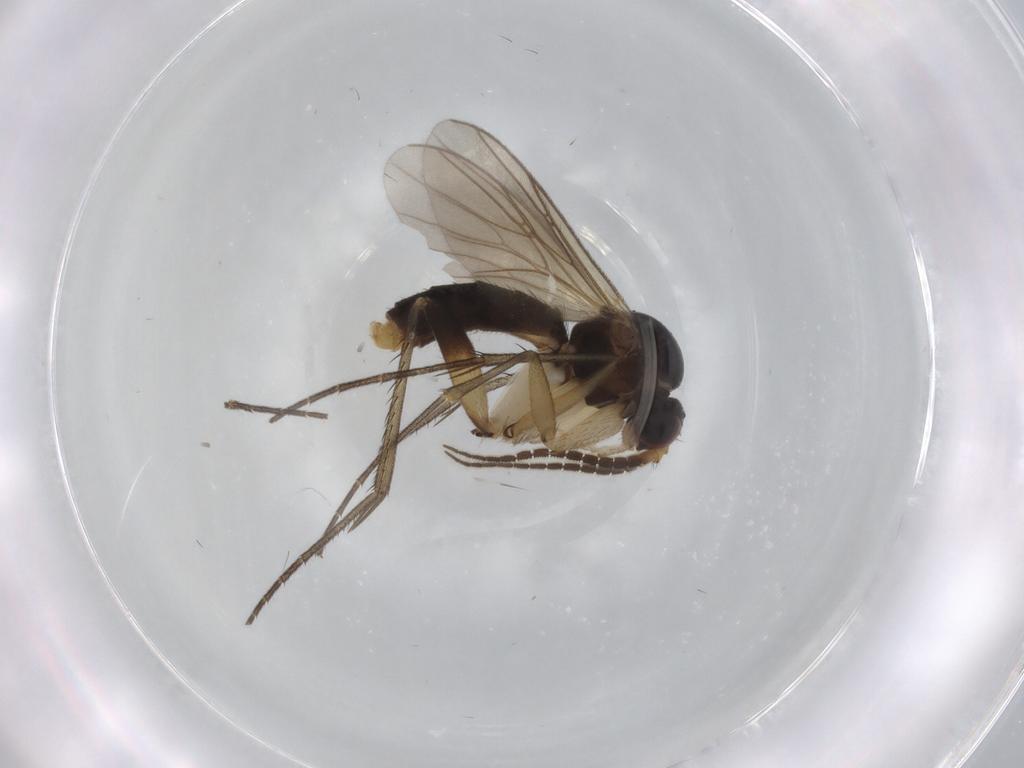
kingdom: Animalia
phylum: Arthropoda
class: Insecta
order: Diptera
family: Mycetophilidae
